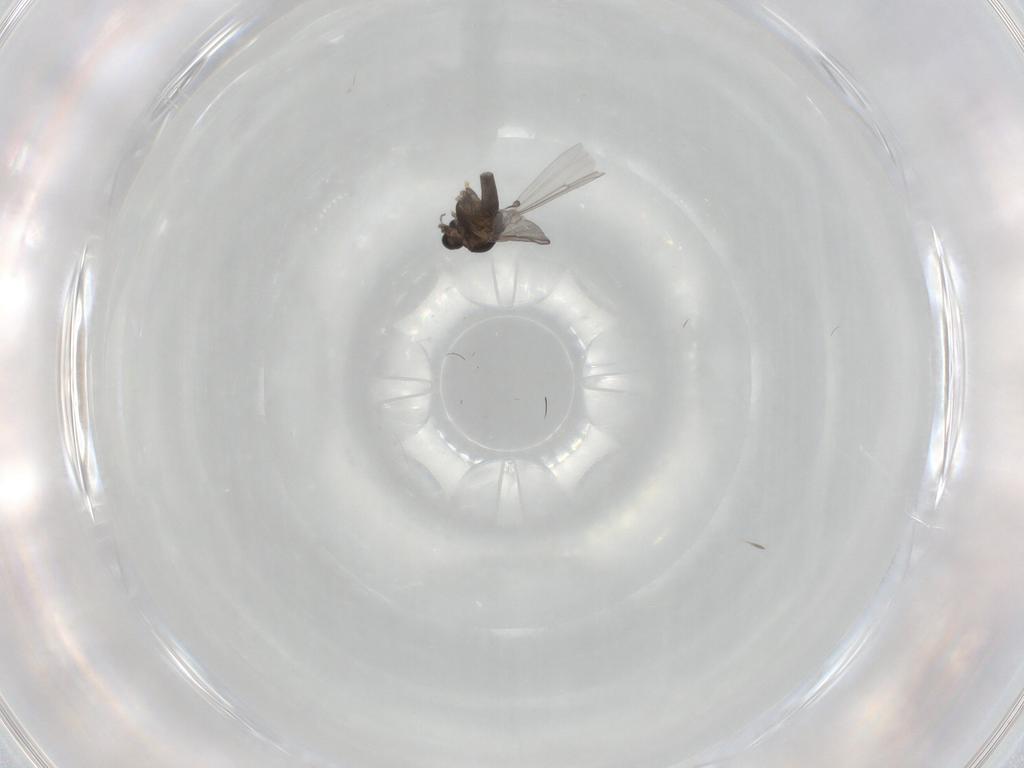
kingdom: Animalia
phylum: Arthropoda
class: Insecta
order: Diptera
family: Chironomidae
